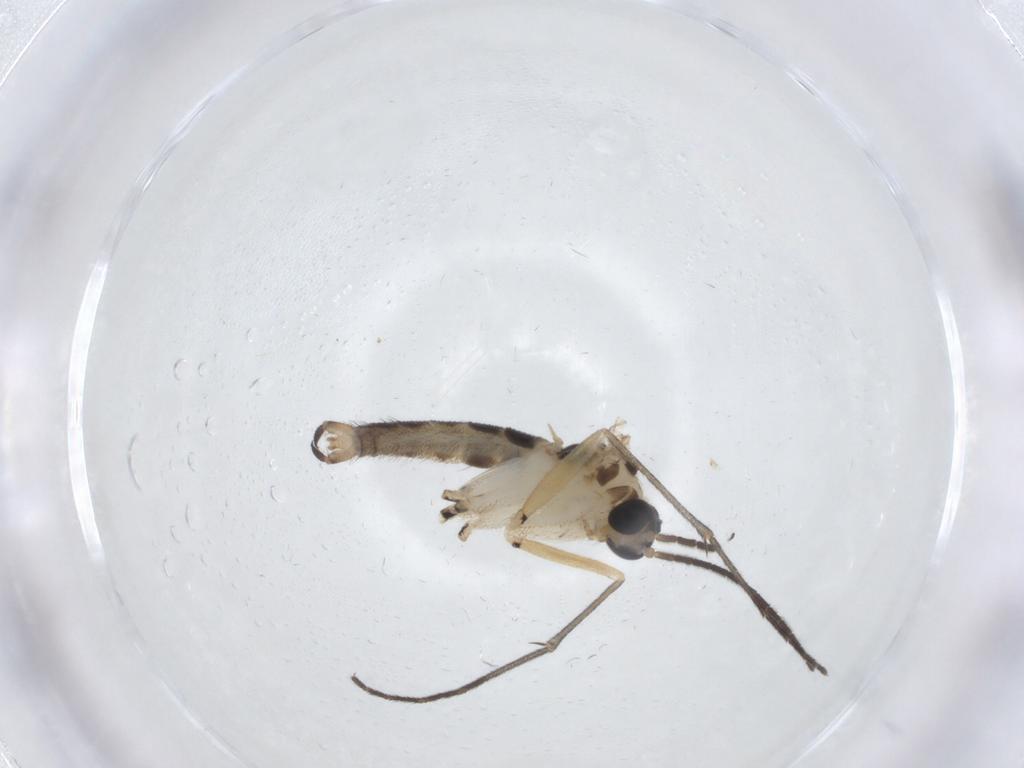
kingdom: Animalia
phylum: Arthropoda
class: Insecta
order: Diptera
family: Sciaridae
